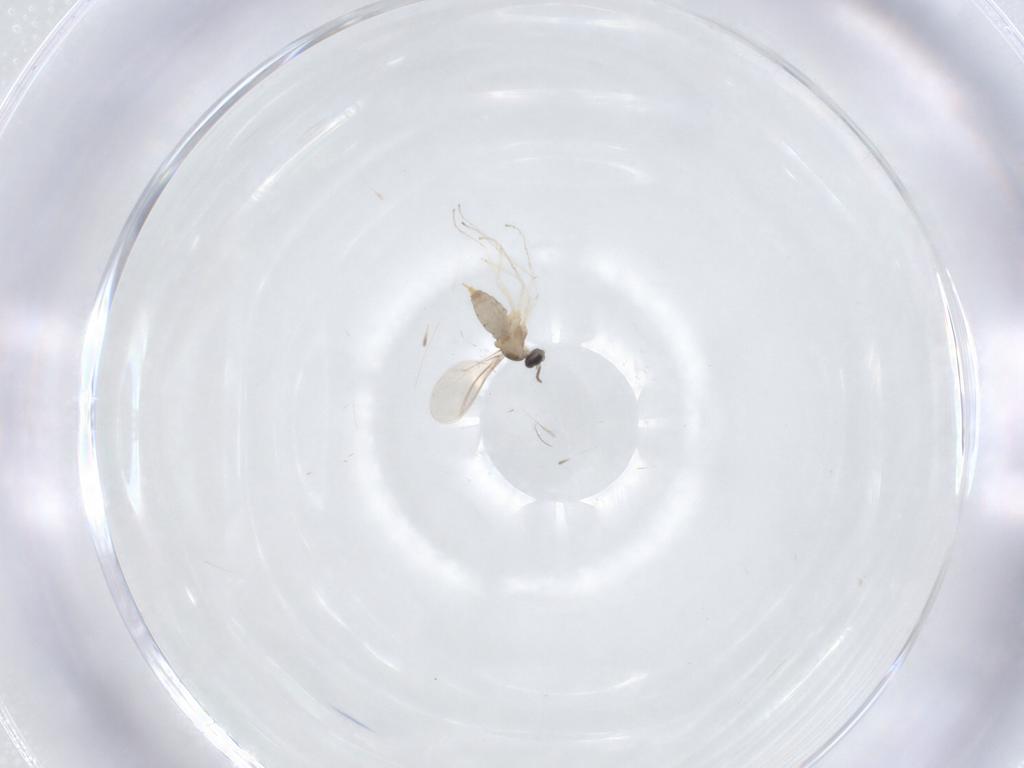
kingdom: Animalia
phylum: Arthropoda
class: Insecta
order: Diptera
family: Cecidomyiidae
